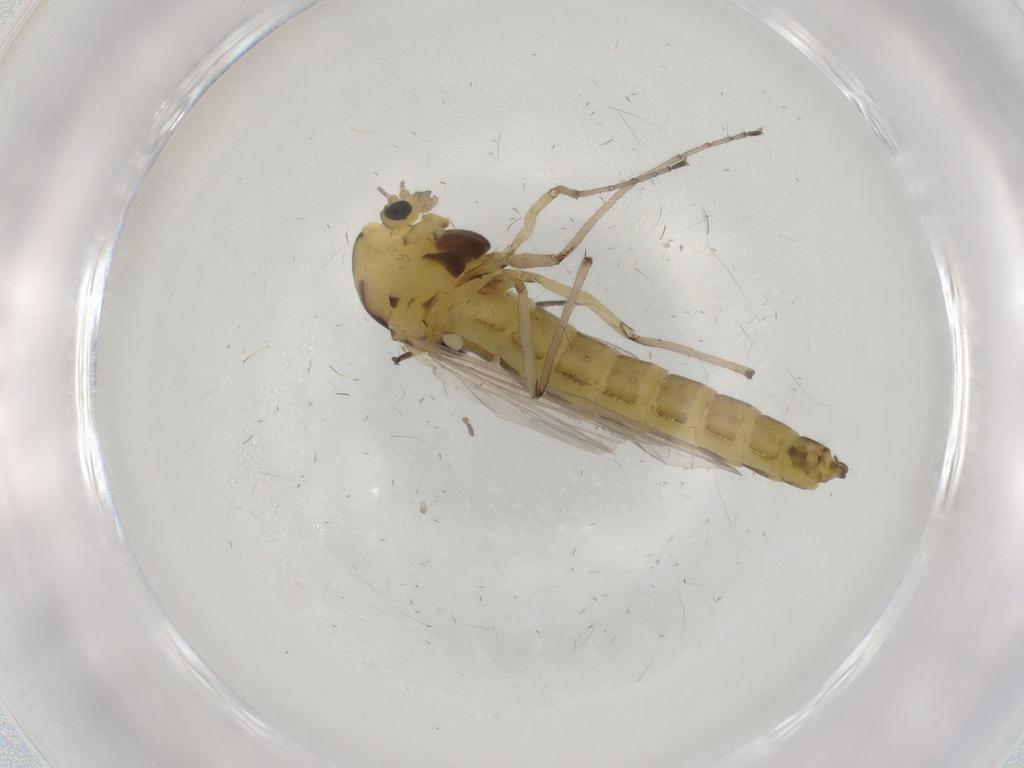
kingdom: Animalia
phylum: Arthropoda
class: Insecta
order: Diptera
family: Empididae
